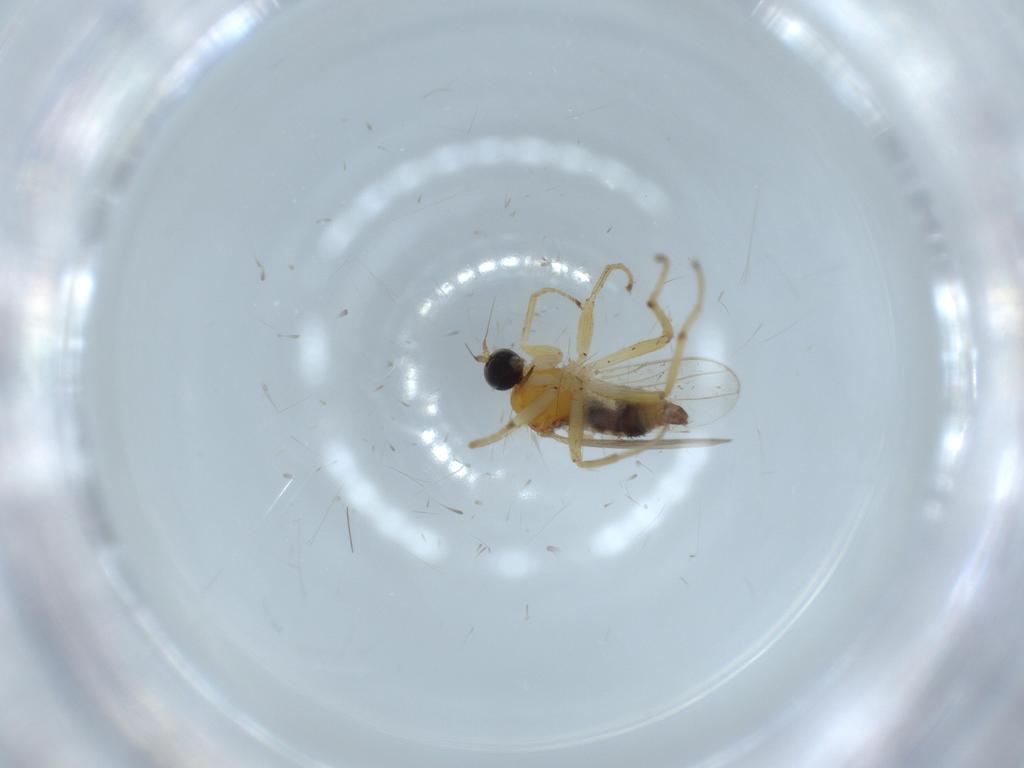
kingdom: Animalia
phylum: Arthropoda
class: Insecta
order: Diptera
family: Hybotidae
